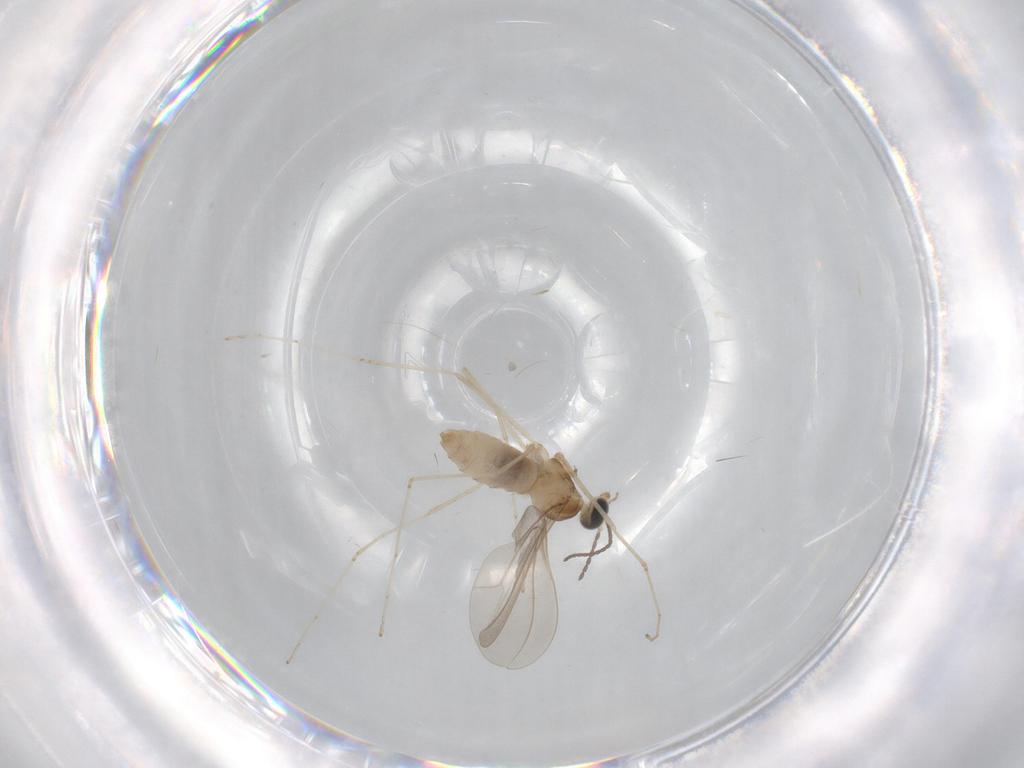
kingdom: Animalia
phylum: Arthropoda
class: Insecta
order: Diptera
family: Cecidomyiidae
